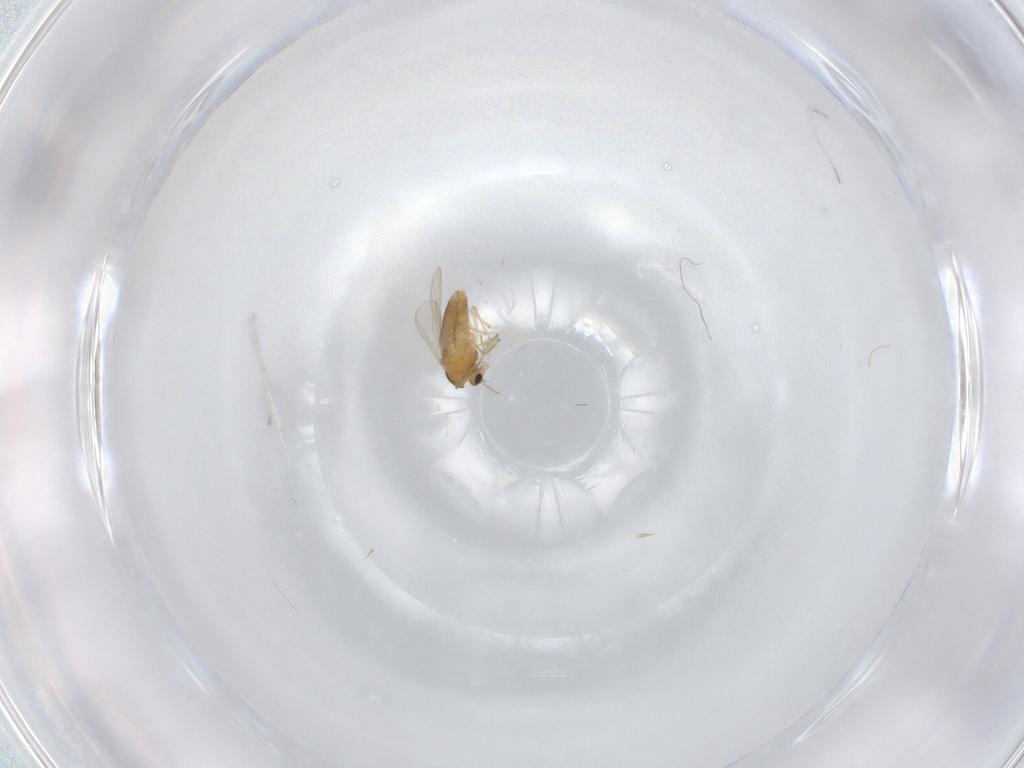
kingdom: Animalia
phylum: Arthropoda
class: Insecta
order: Diptera
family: Chironomidae
